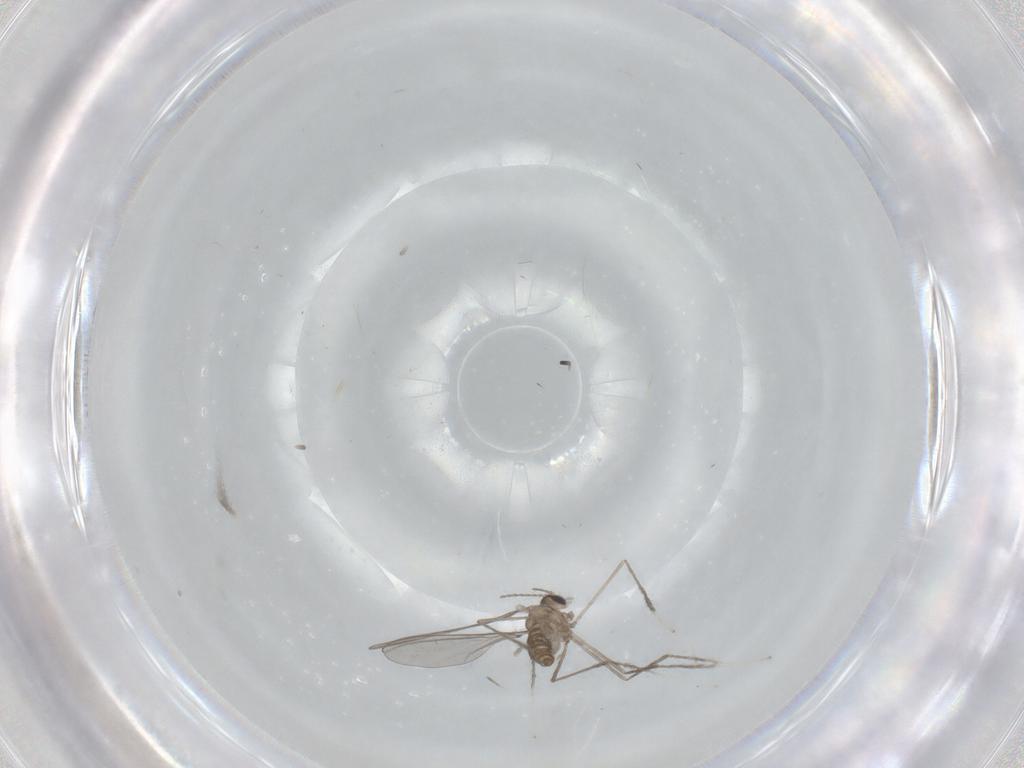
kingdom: Animalia
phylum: Arthropoda
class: Insecta
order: Diptera
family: Cecidomyiidae
